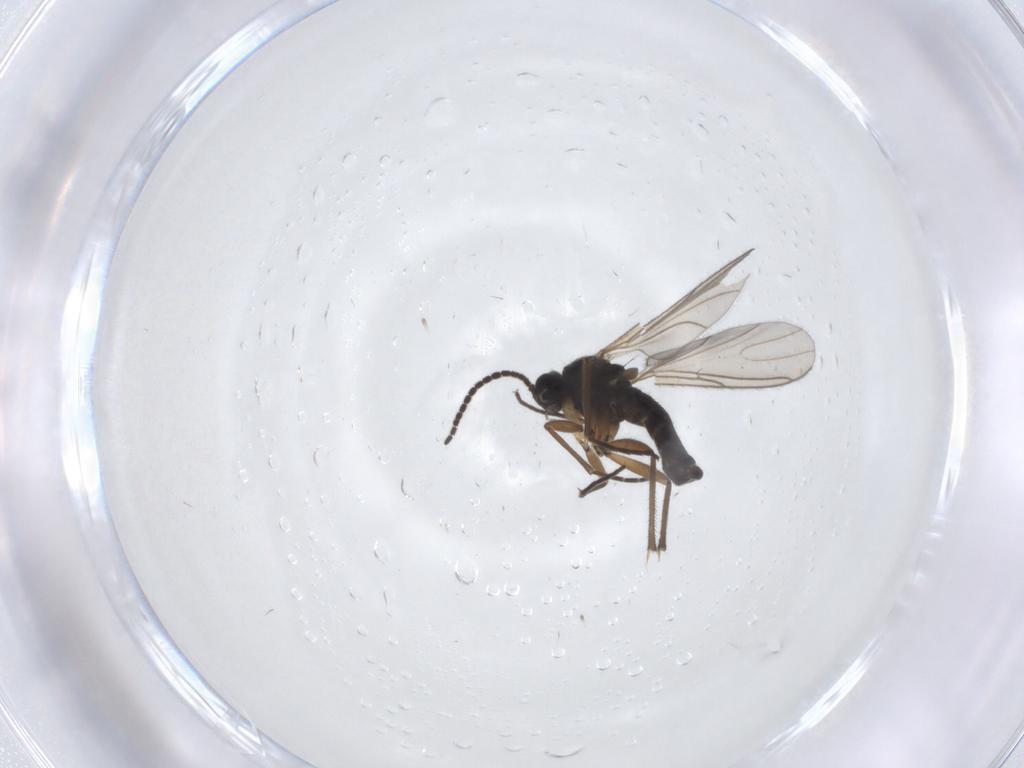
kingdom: Animalia
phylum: Arthropoda
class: Insecta
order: Diptera
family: Sciaridae
